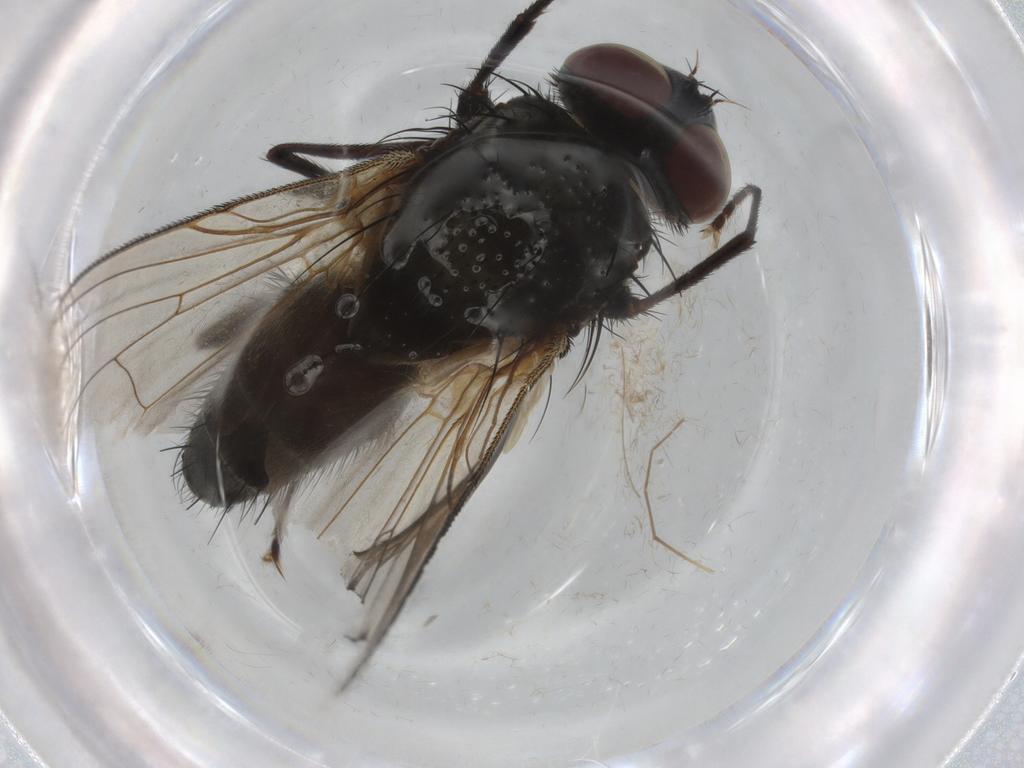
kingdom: Animalia
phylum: Arthropoda
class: Insecta
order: Diptera
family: Muscidae
